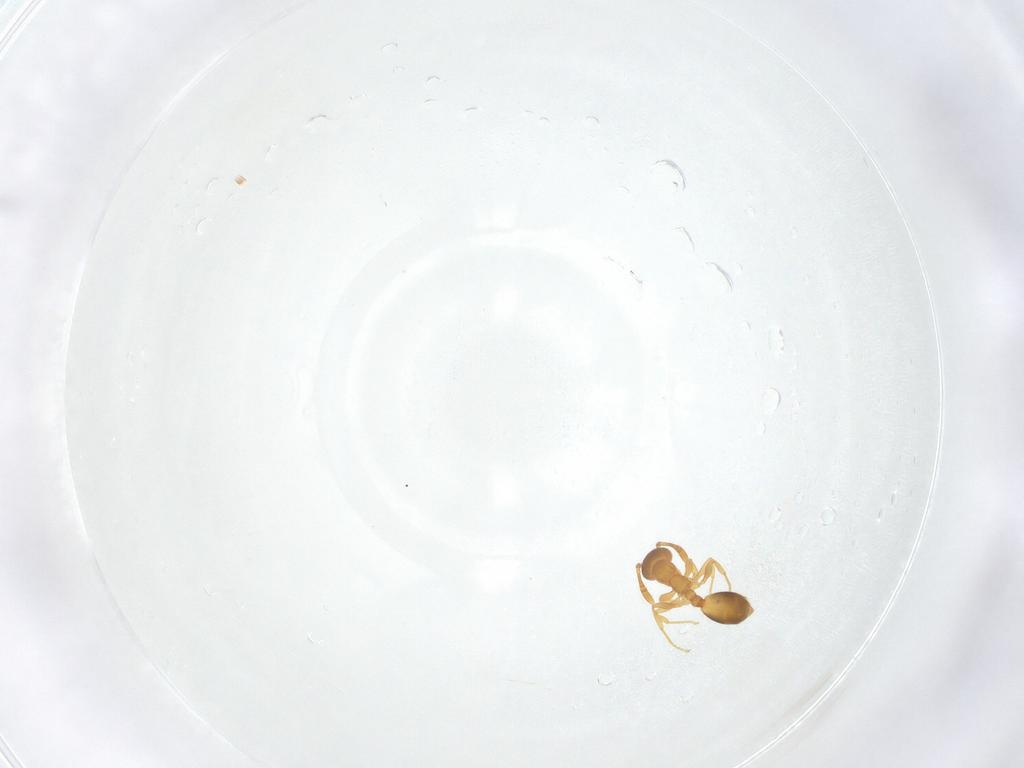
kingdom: Animalia
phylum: Arthropoda
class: Insecta
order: Hymenoptera
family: Formicidae
